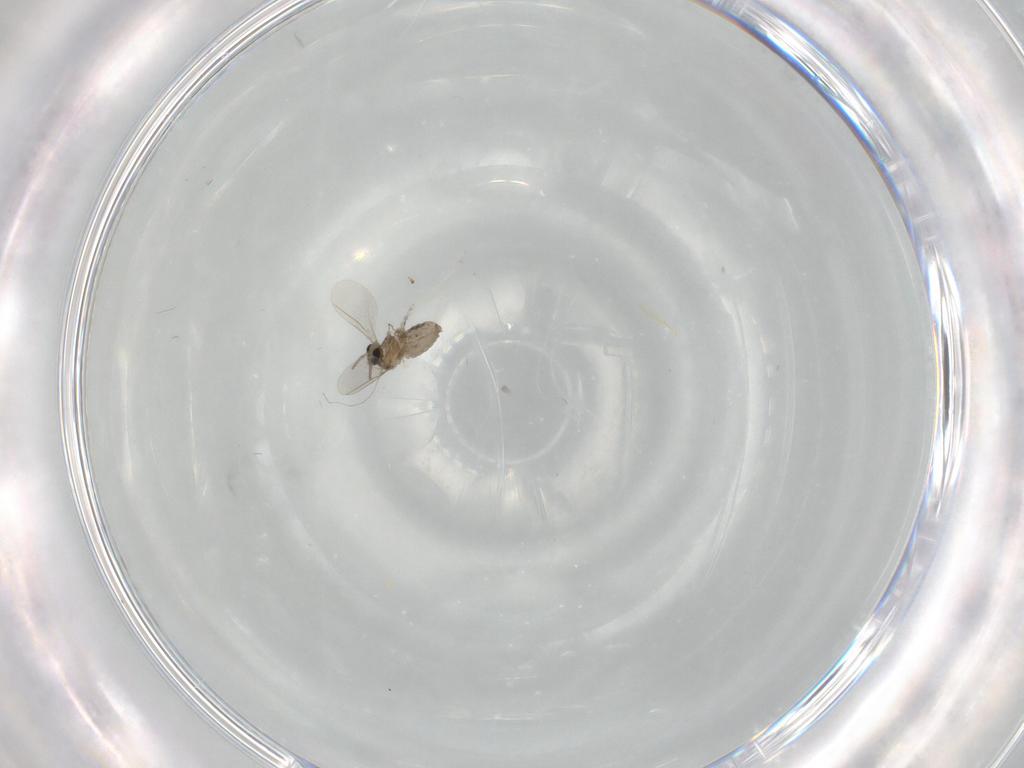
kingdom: Animalia
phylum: Arthropoda
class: Insecta
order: Diptera
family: Cecidomyiidae
